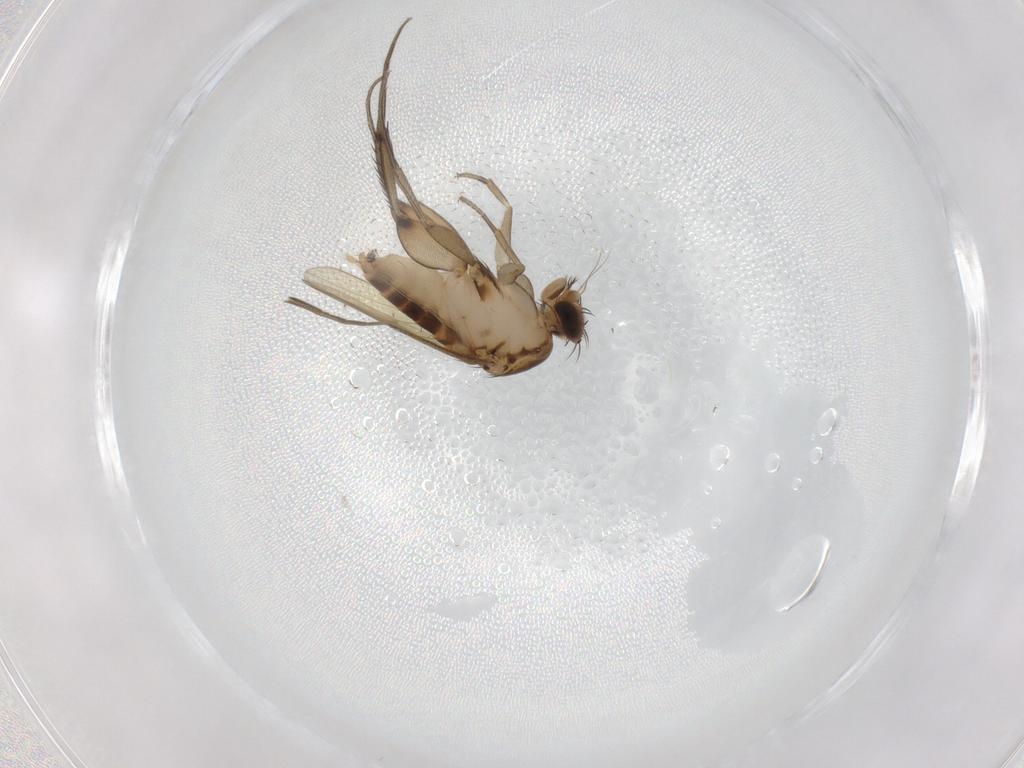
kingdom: Animalia
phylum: Arthropoda
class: Insecta
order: Diptera
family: Phoridae
